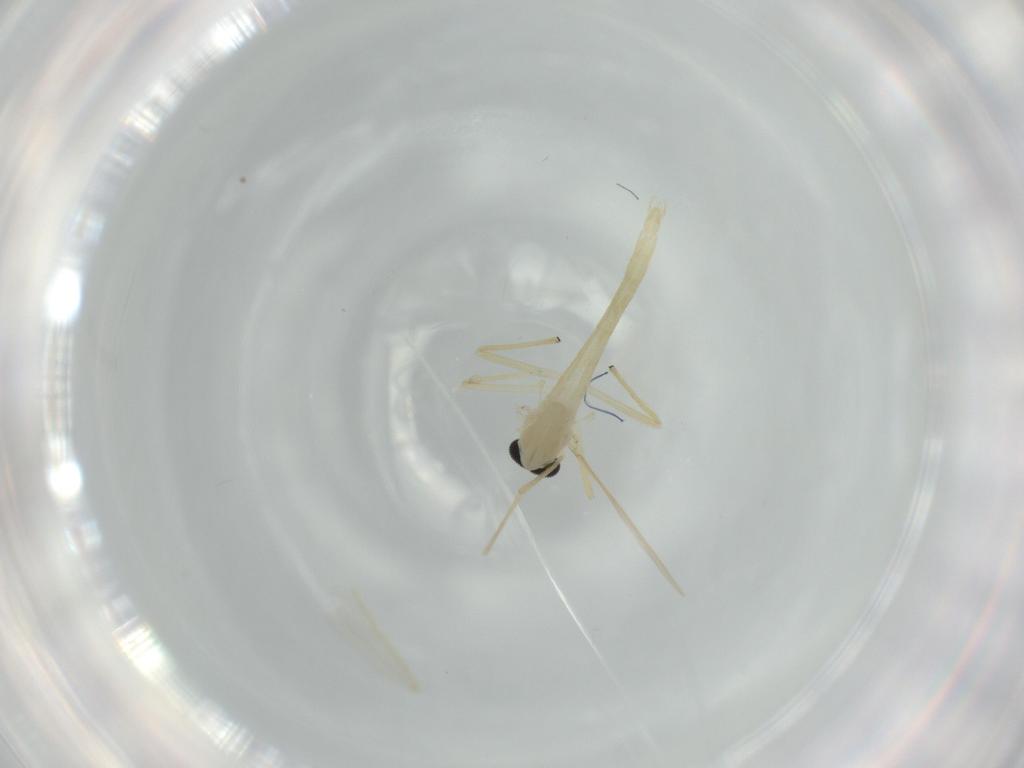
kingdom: Animalia
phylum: Arthropoda
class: Insecta
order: Diptera
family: Chironomidae
